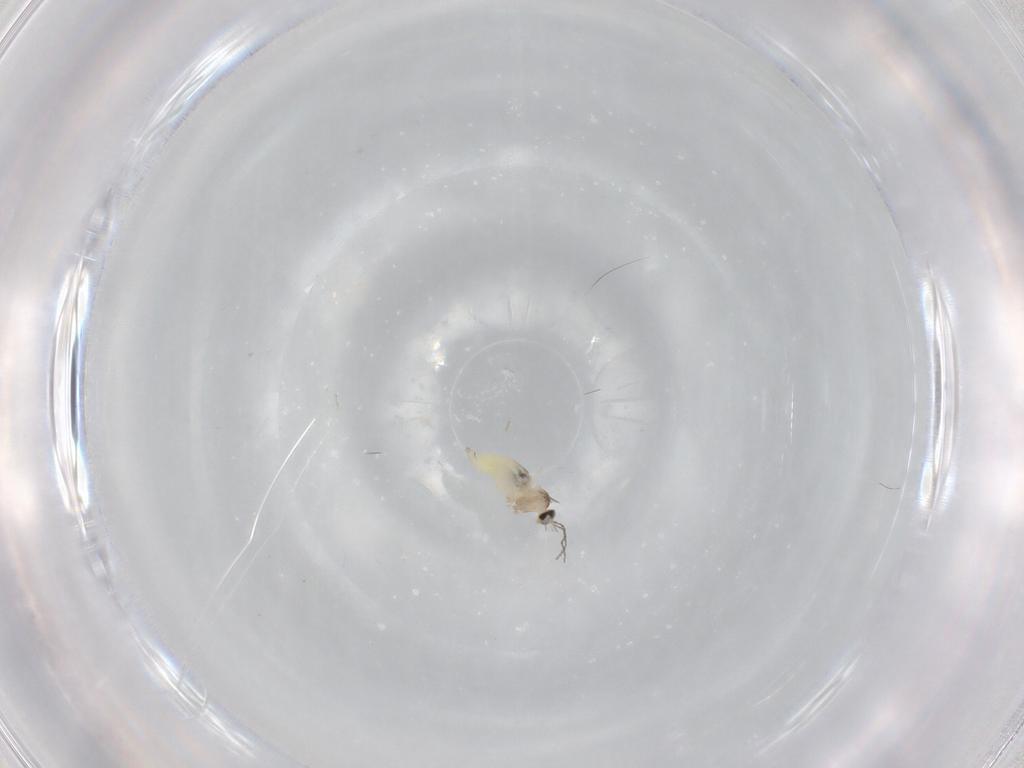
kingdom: Animalia
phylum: Arthropoda
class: Insecta
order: Diptera
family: Cecidomyiidae
